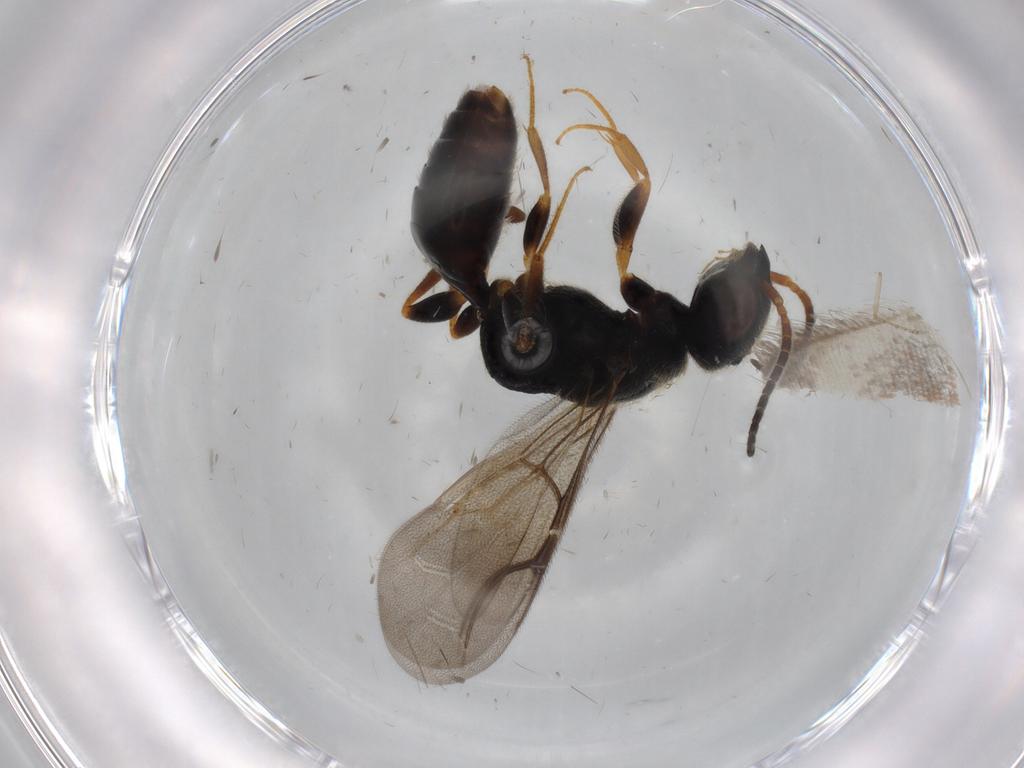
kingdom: Animalia
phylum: Arthropoda
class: Insecta
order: Hymenoptera
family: Bethylidae
